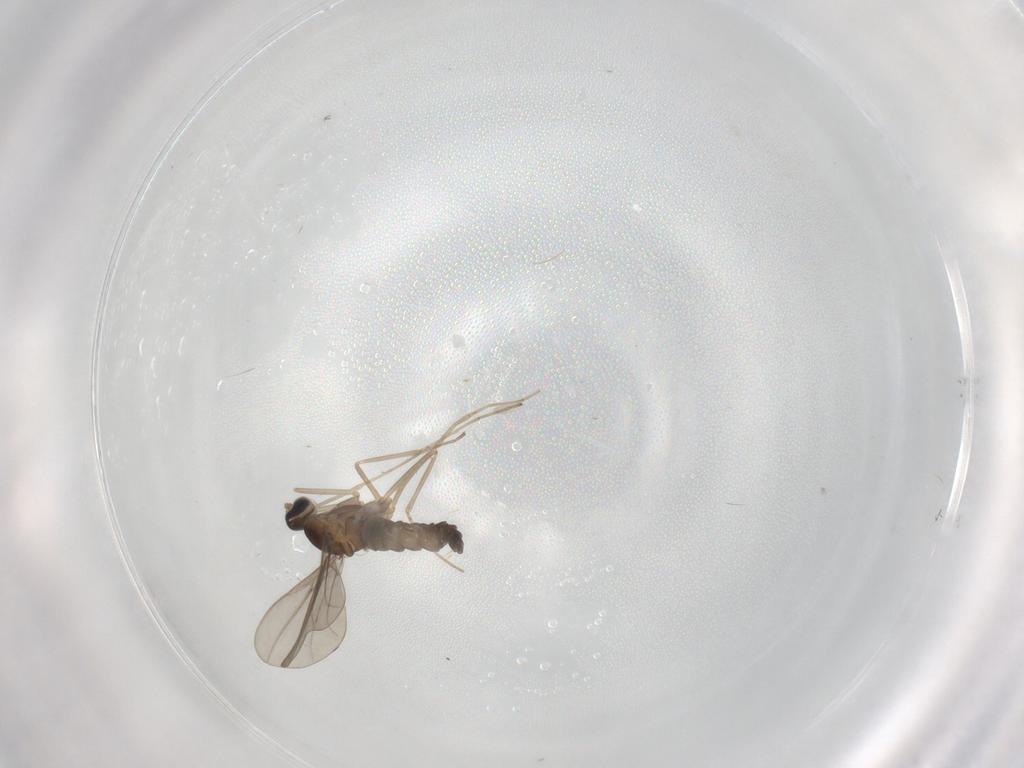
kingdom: Animalia
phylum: Arthropoda
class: Insecta
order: Diptera
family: Cecidomyiidae
